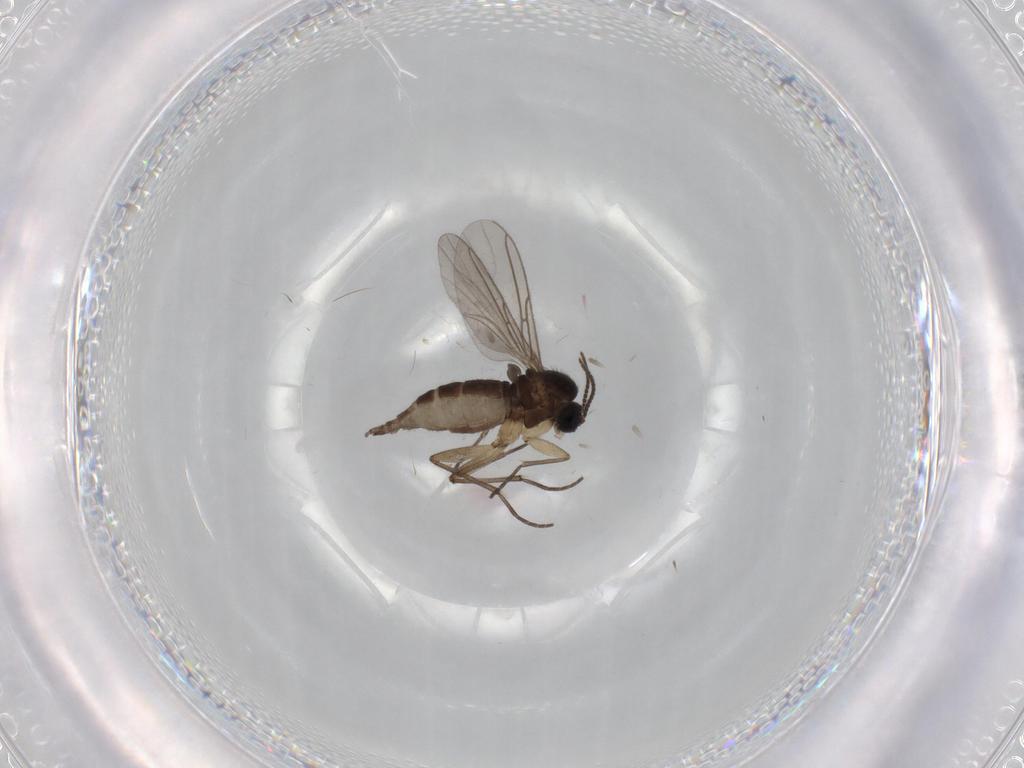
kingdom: Animalia
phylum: Arthropoda
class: Insecta
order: Diptera
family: Sciaridae
